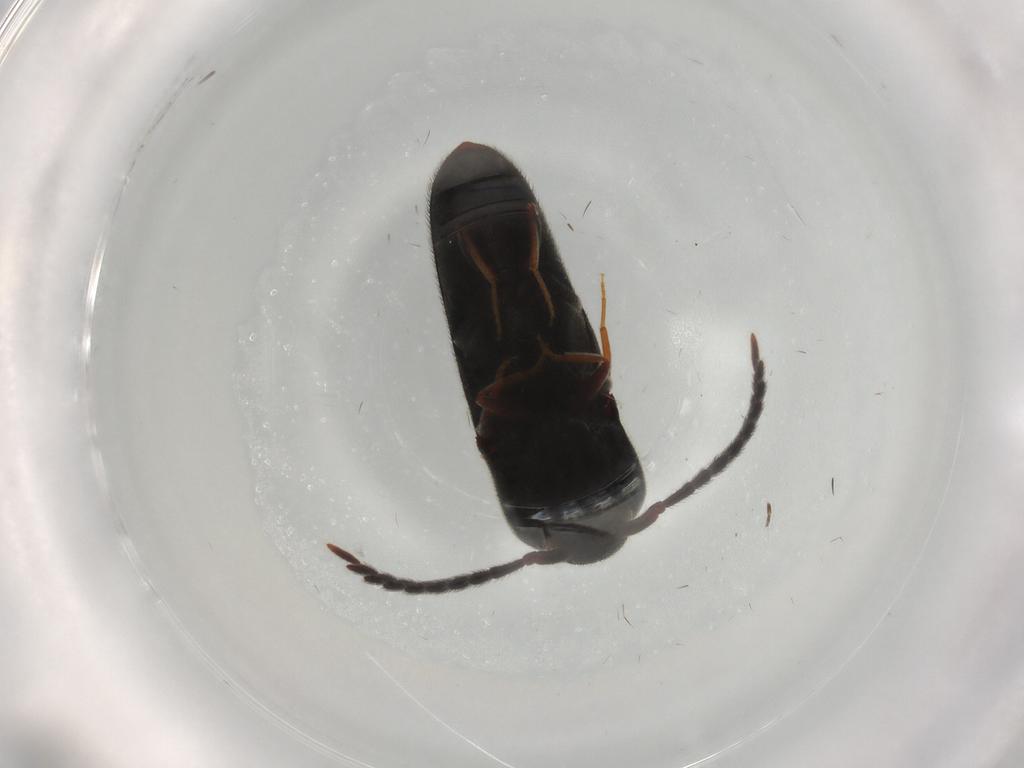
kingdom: Animalia
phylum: Arthropoda
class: Insecta
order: Coleoptera
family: Eucnemidae
